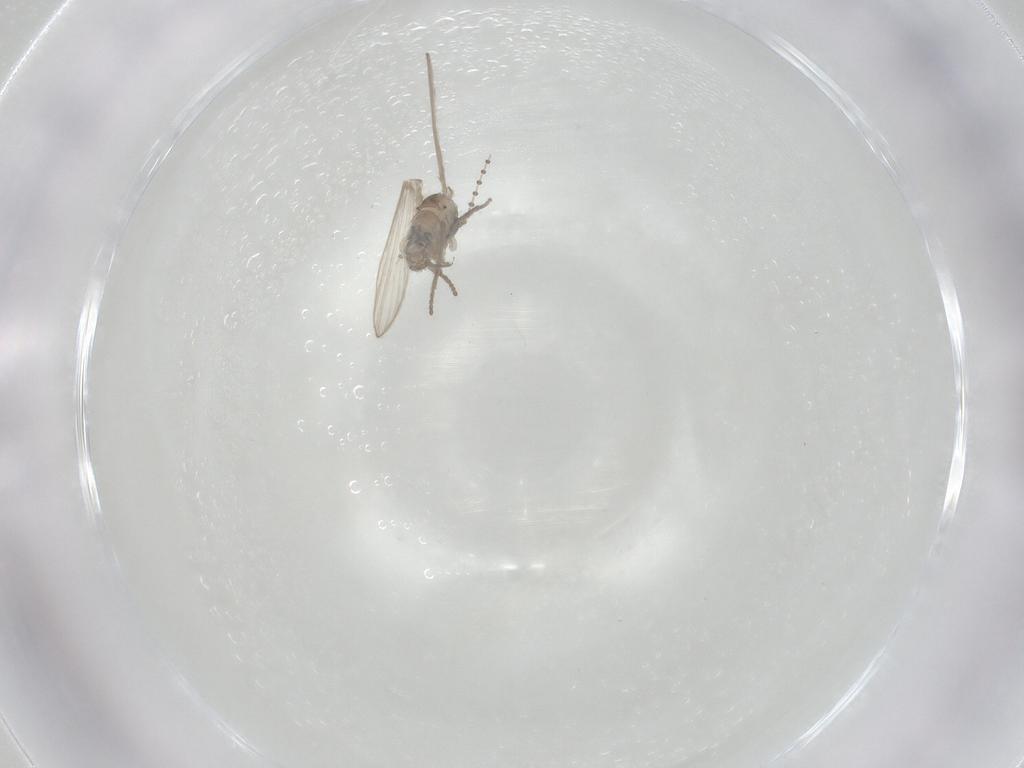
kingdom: Animalia
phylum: Arthropoda
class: Insecta
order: Diptera
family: Psychodidae
